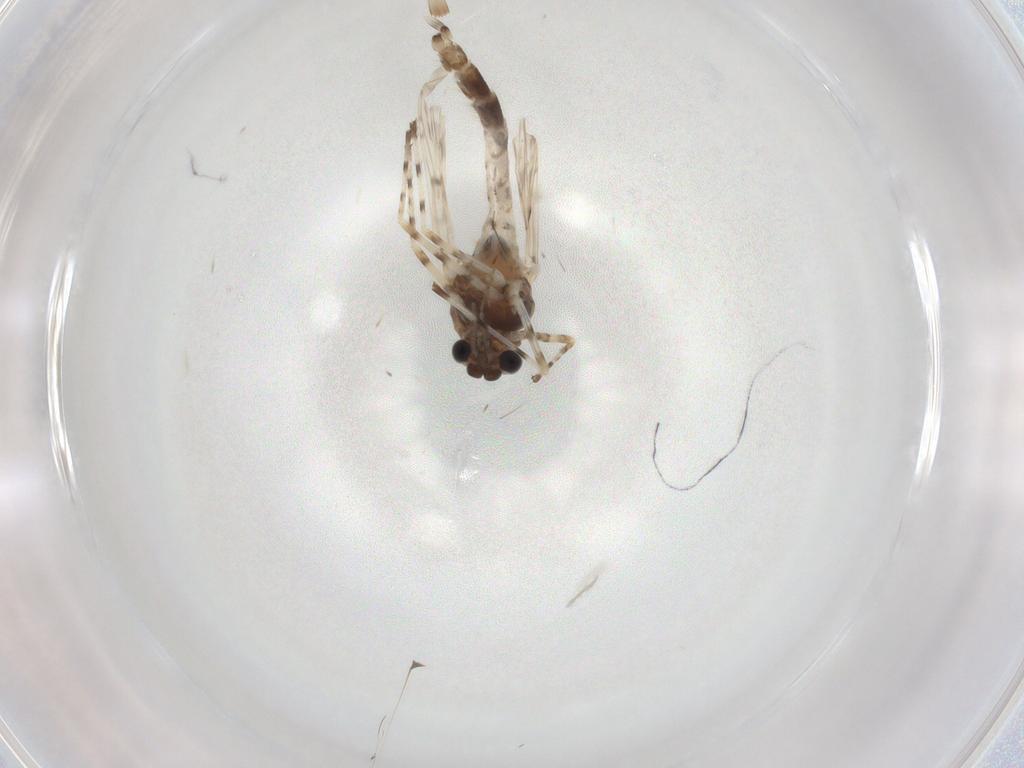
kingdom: Animalia
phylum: Arthropoda
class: Insecta
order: Diptera
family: Chironomidae
